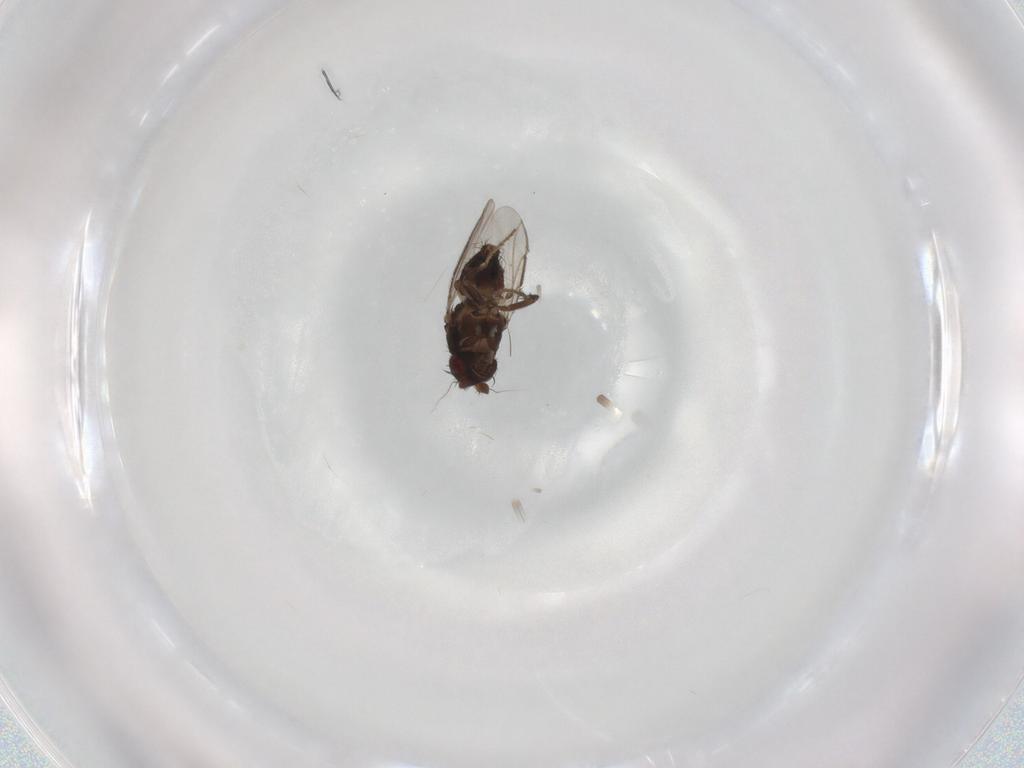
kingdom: Animalia
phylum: Arthropoda
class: Insecta
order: Diptera
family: Sphaeroceridae
